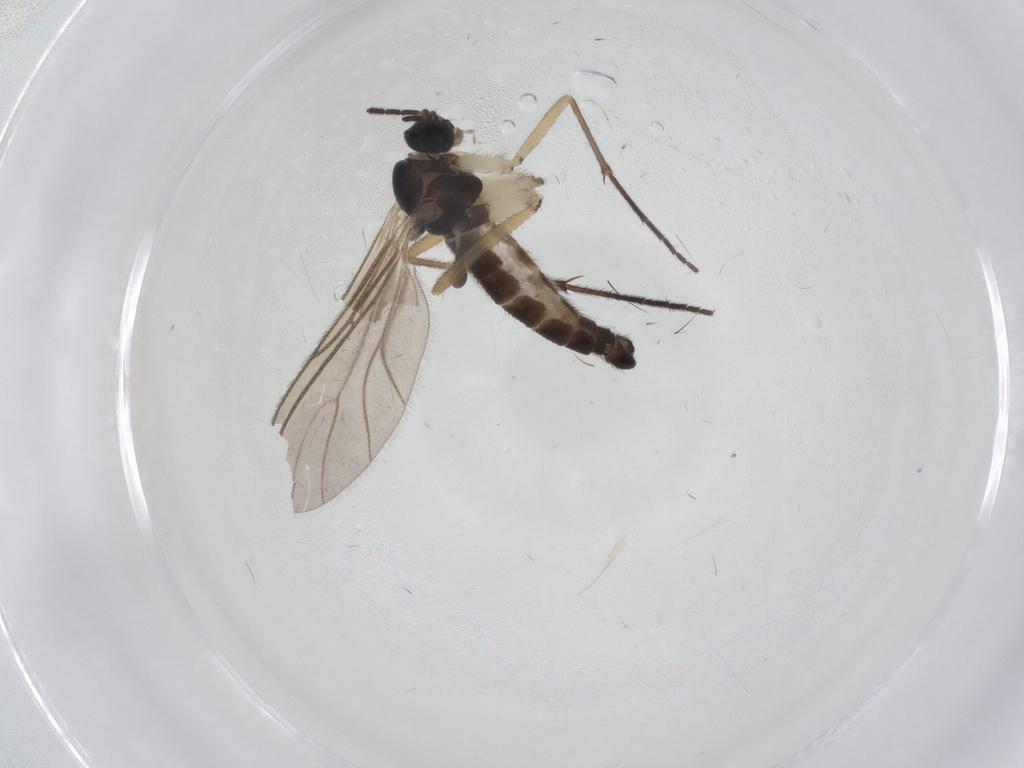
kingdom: Animalia
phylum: Arthropoda
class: Insecta
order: Diptera
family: Sciaridae
